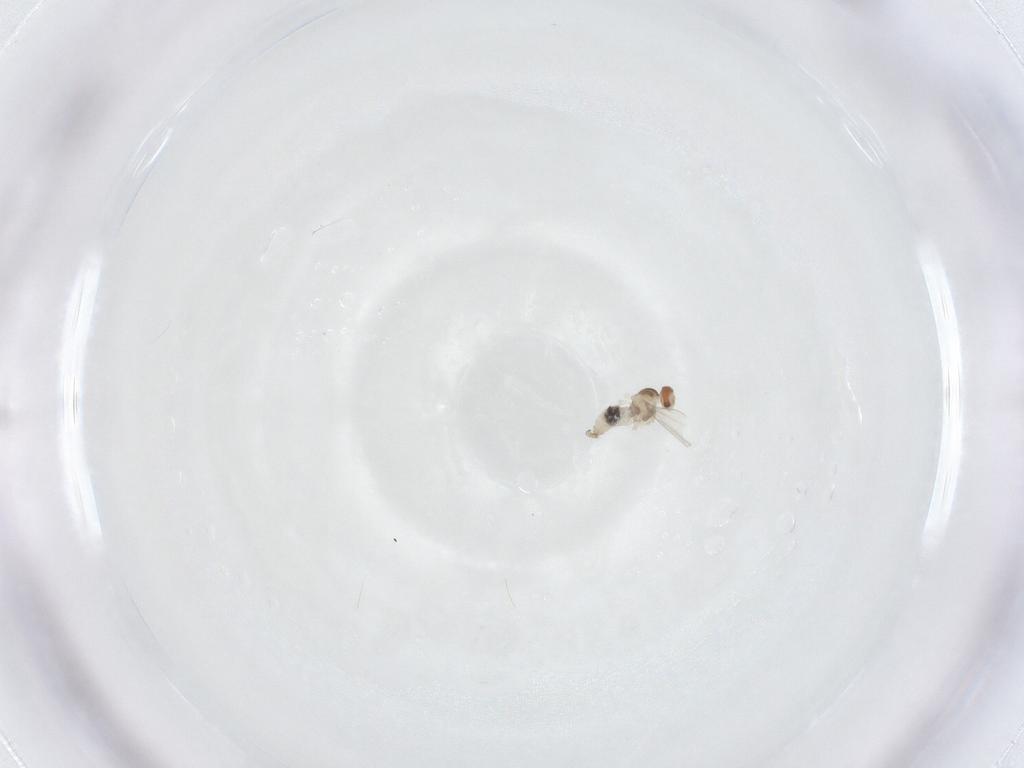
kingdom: Animalia
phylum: Arthropoda
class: Insecta
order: Diptera
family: Cecidomyiidae
